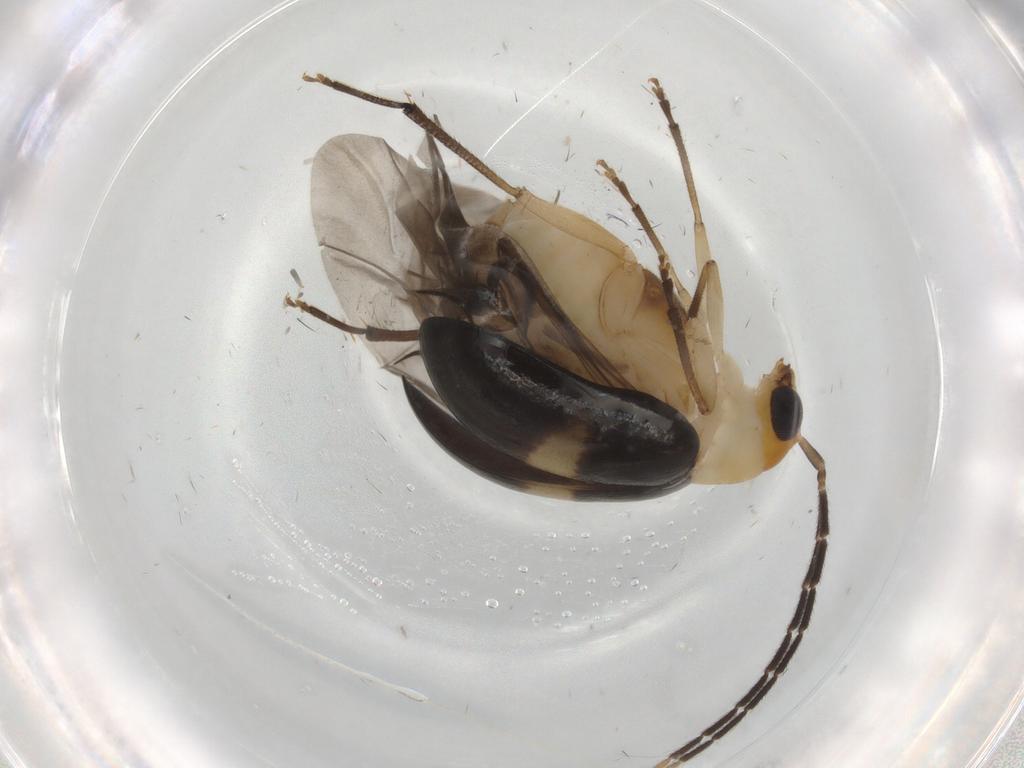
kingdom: Animalia
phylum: Arthropoda
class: Insecta
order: Coleoptera
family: Chrysomelidae
